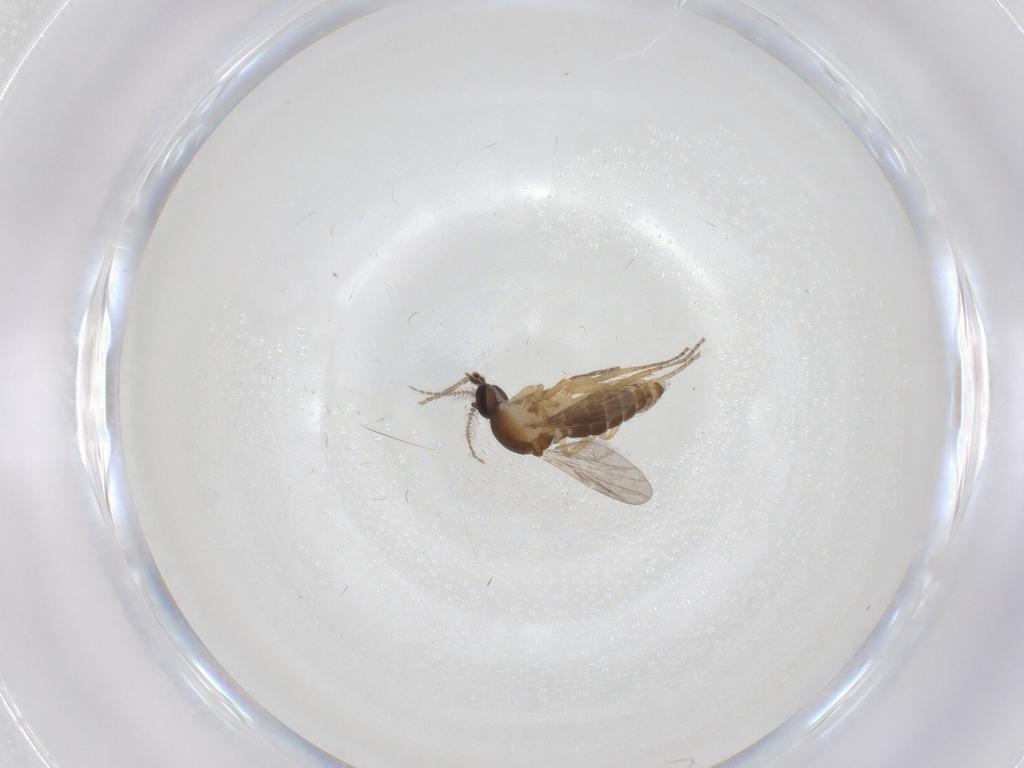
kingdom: Animalia
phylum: Arthropoda
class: Insecta
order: Diptera
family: Ceratopogonidae
